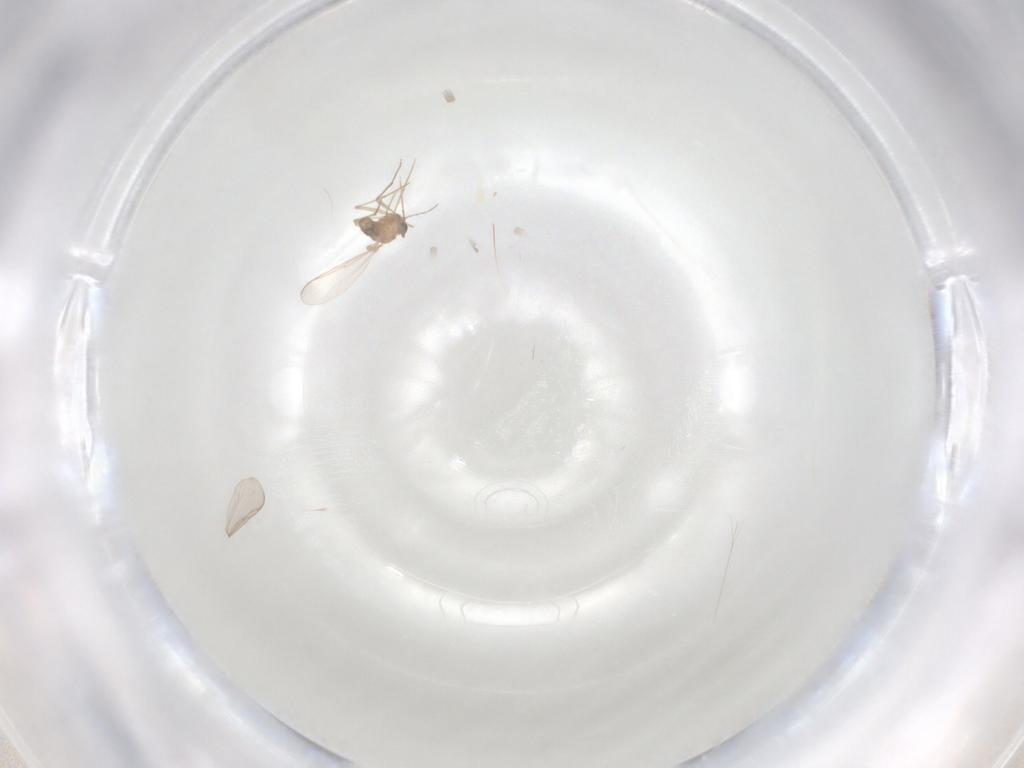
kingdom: Animalia
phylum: Arthropoda
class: Insecta
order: Diptera
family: Chironomidae
